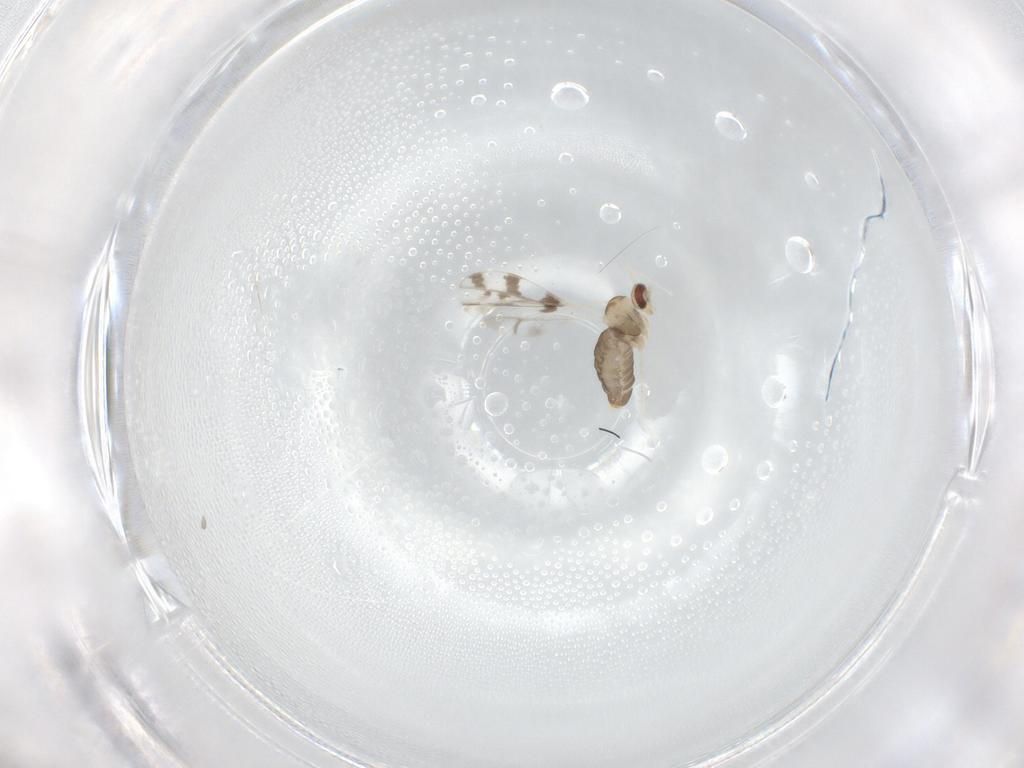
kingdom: Animalia
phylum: Arthropoda
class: Insecta
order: Diptera
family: Cecidomyiidae
